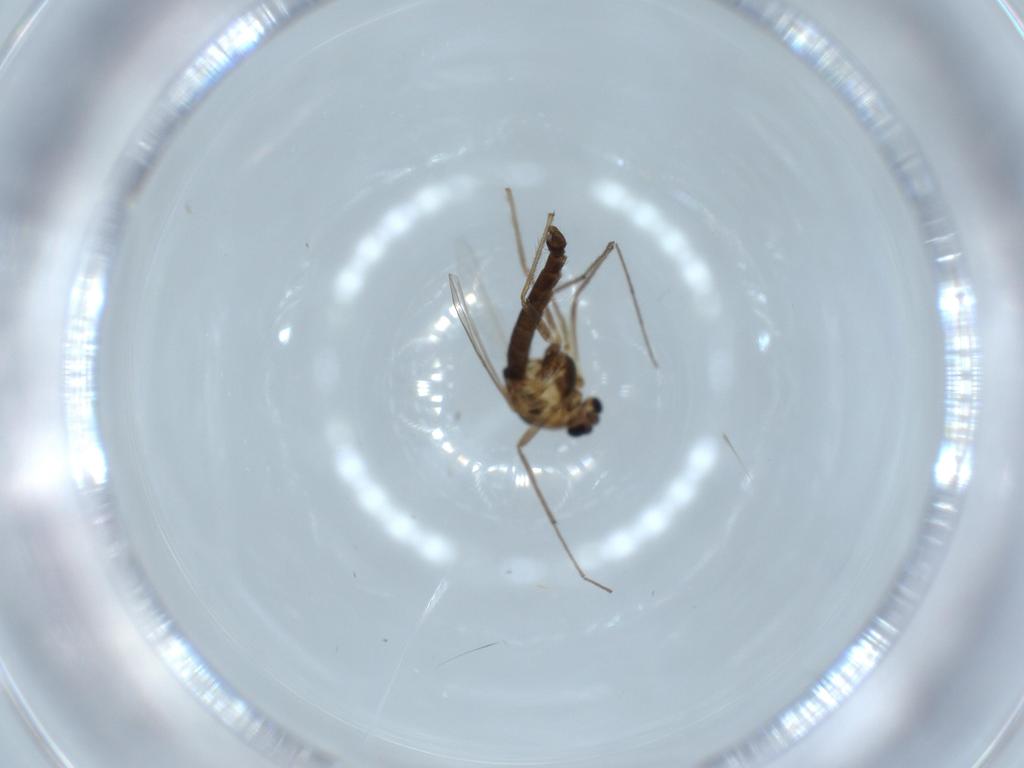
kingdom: Animalia
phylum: Arthropoda
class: Insecta
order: Diptera
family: Chironomidae
